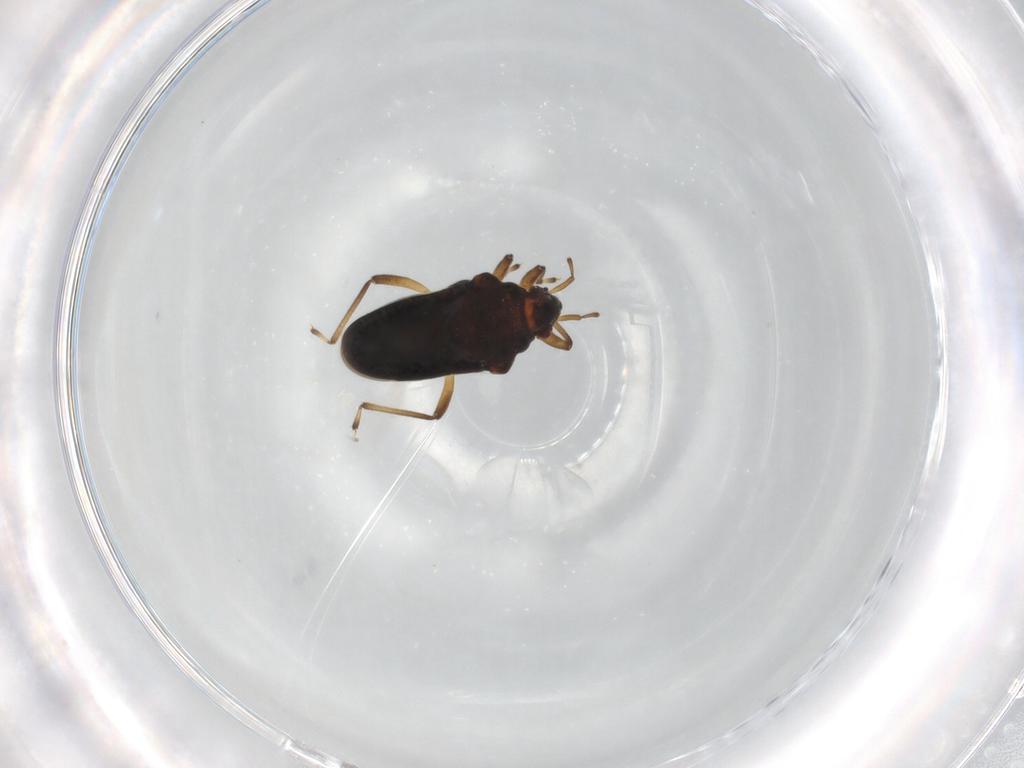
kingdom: Animalia
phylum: Arthropoda
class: Insecta
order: Hemiptera
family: Hebridae
